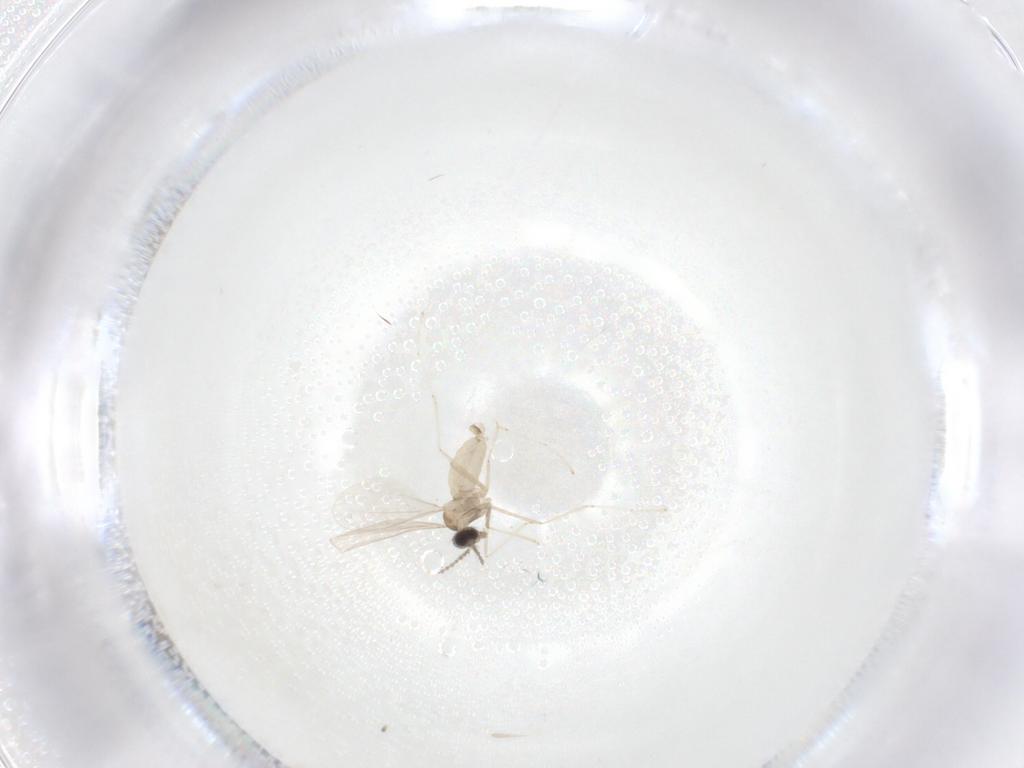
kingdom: Animalia
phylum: Arthropoda
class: Insecta
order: Diptera
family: Cecidomyiidae
